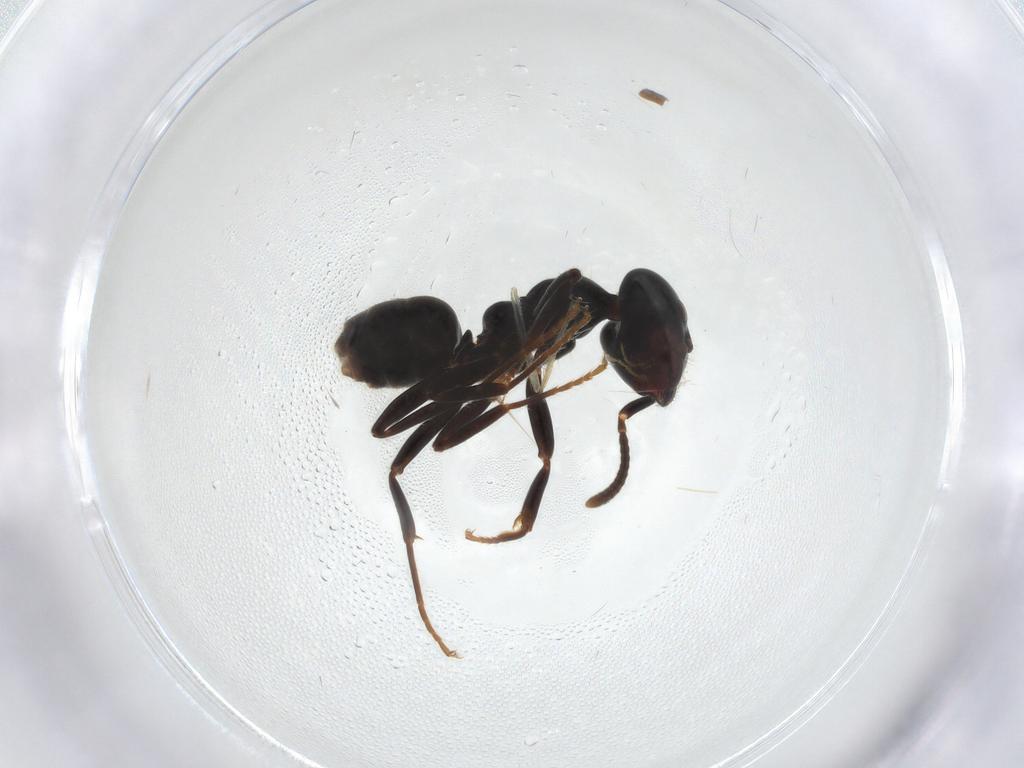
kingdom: Animalia
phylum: Arthropoda
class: Insecta
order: Hymenoptera
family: Formicidae
